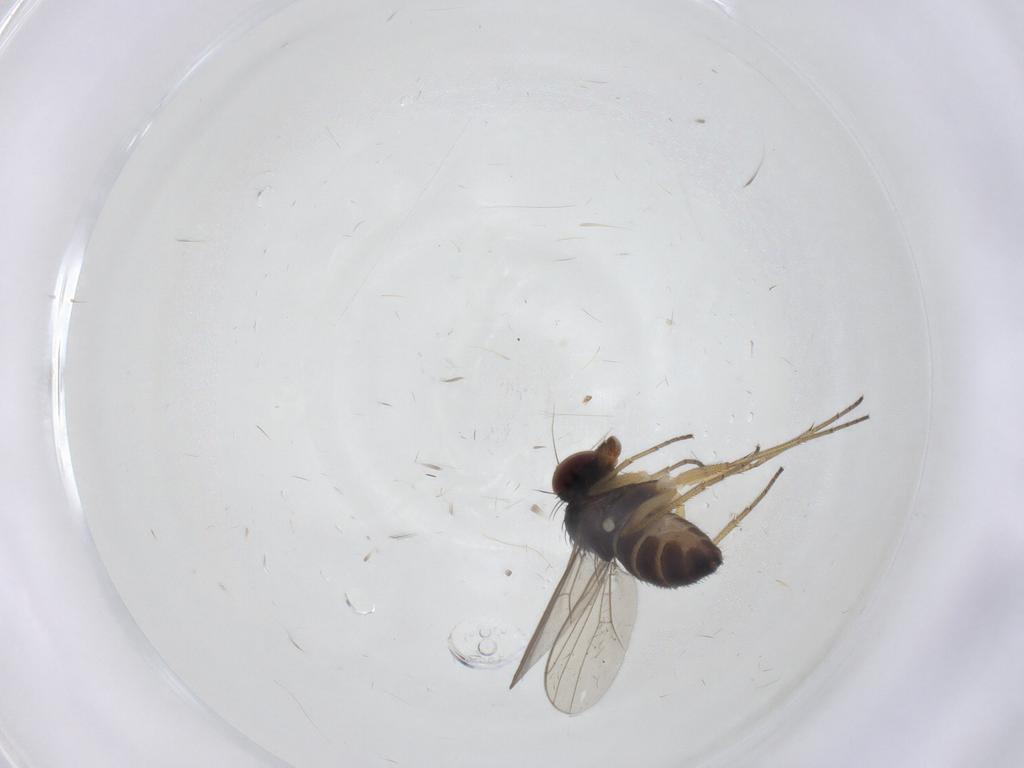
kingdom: Animalia
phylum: Arthropoda
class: Insecta
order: Diptera
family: Dolichopodidae
